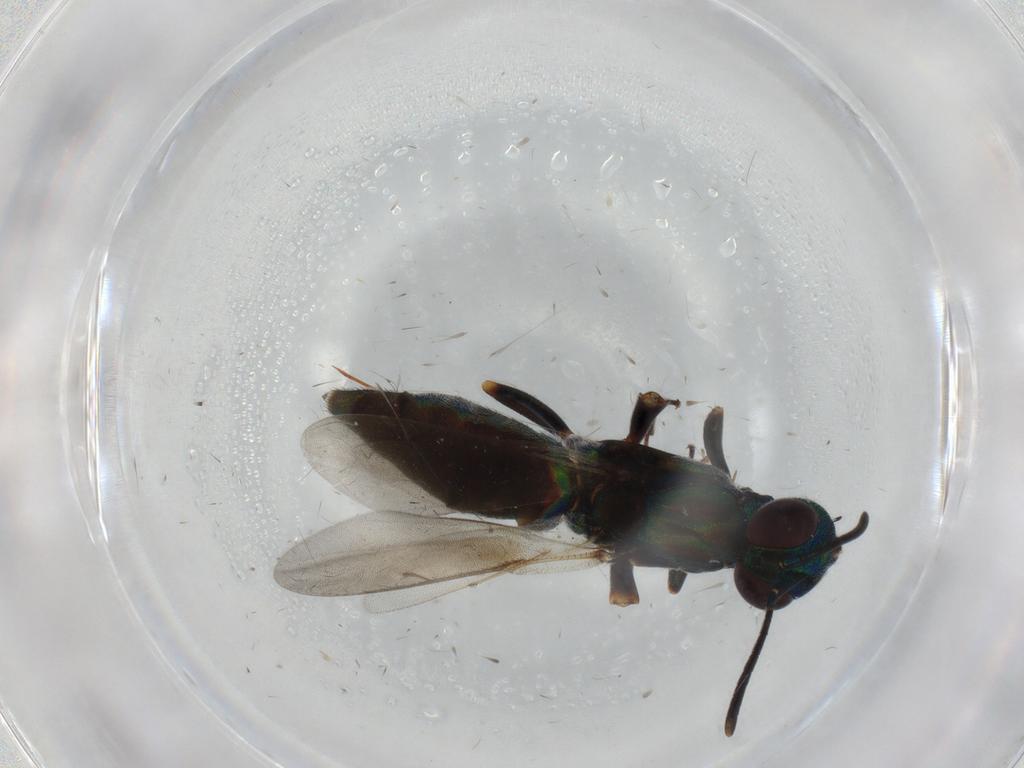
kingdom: Animalia
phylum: Arthropoda
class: Insecta
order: Hymenoptera
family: Eupelmidae
